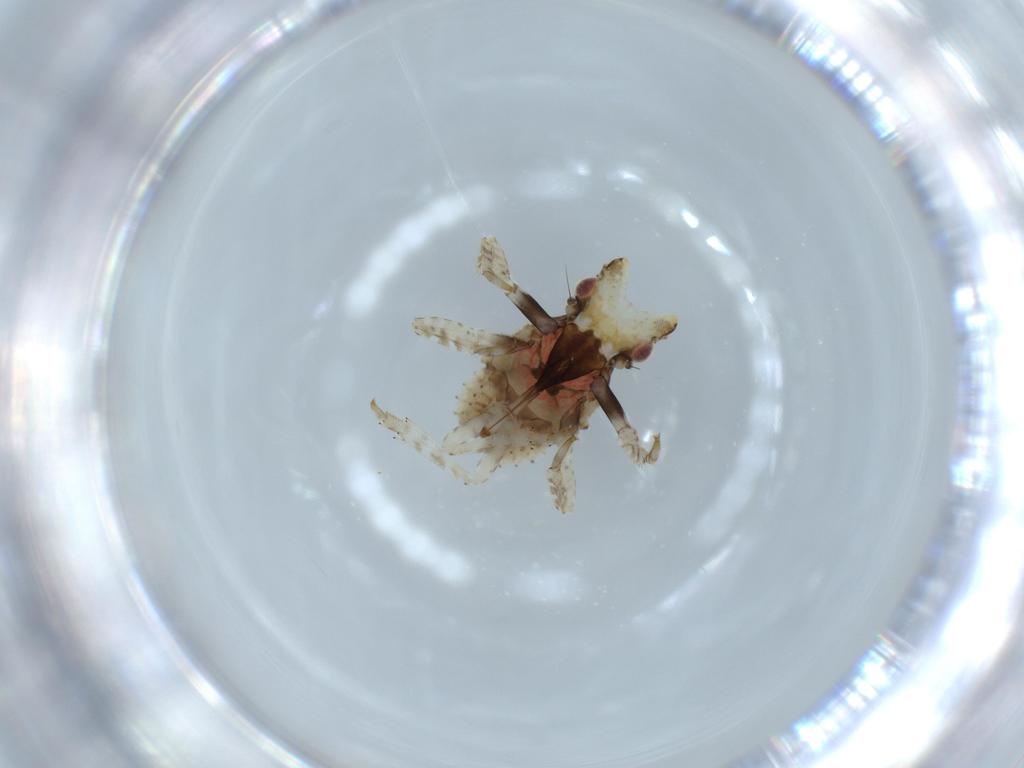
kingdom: Animalia
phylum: Arthropoda
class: Insecta
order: Hemiptera
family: Fulgoridae
